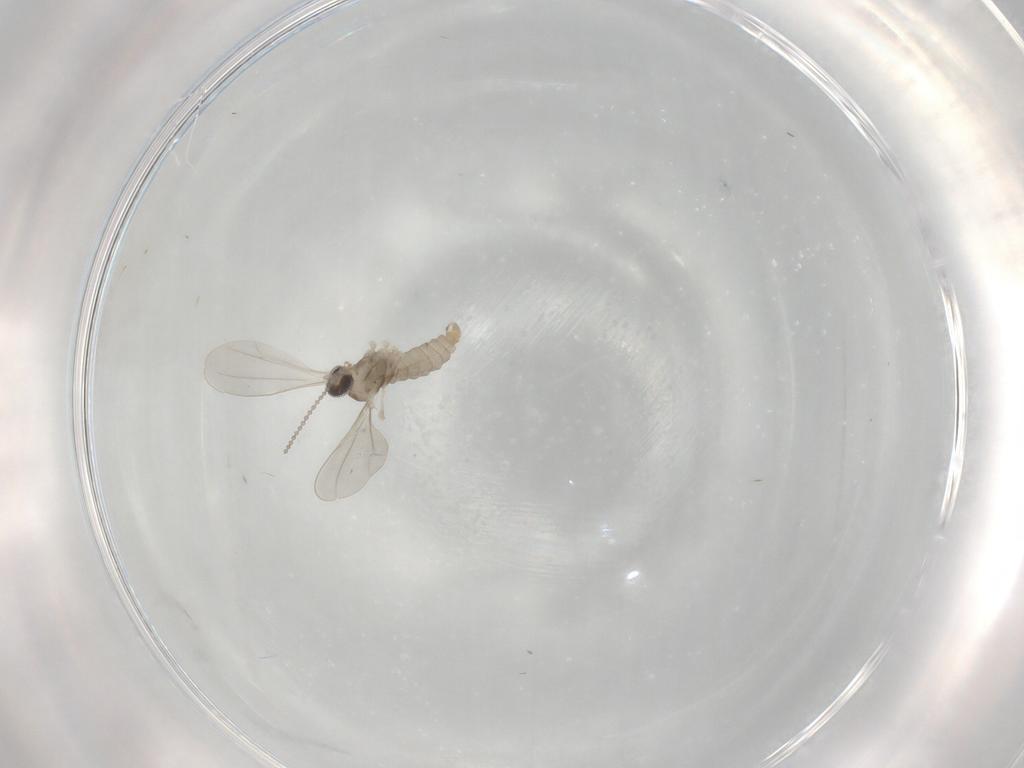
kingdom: Animalia
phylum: Arthropoda
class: Insecta
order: Diptera
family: Cecidomyiidae
